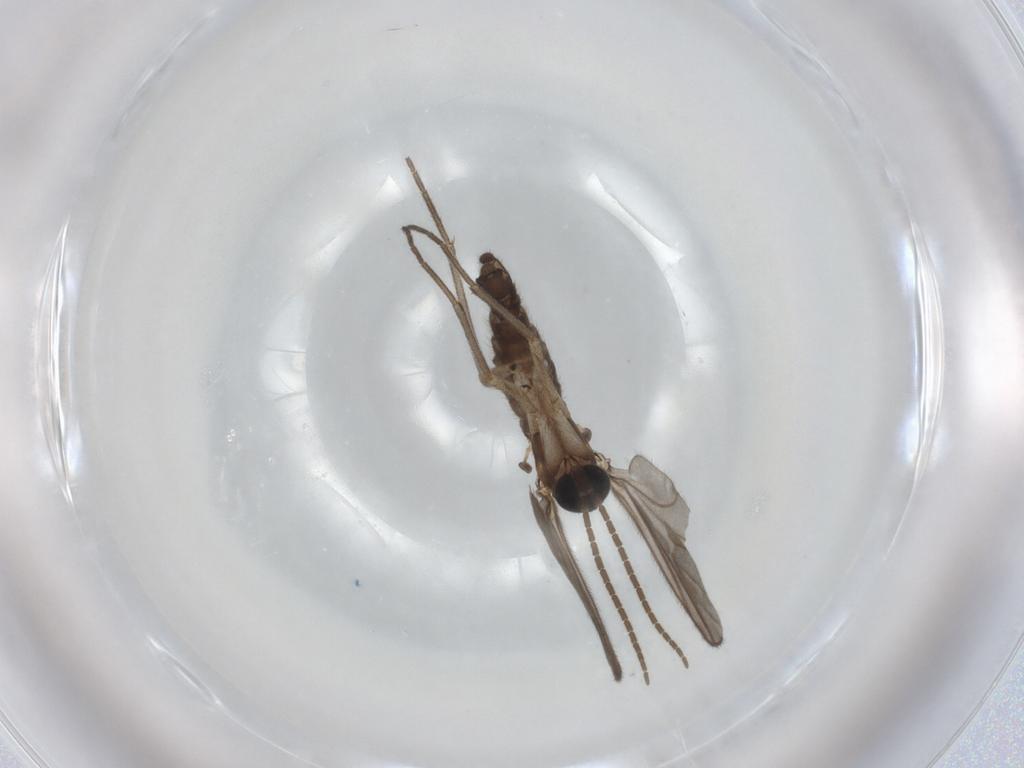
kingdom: Animalia
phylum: Arthropoda
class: Insecta
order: Diptera
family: Sciaridae
